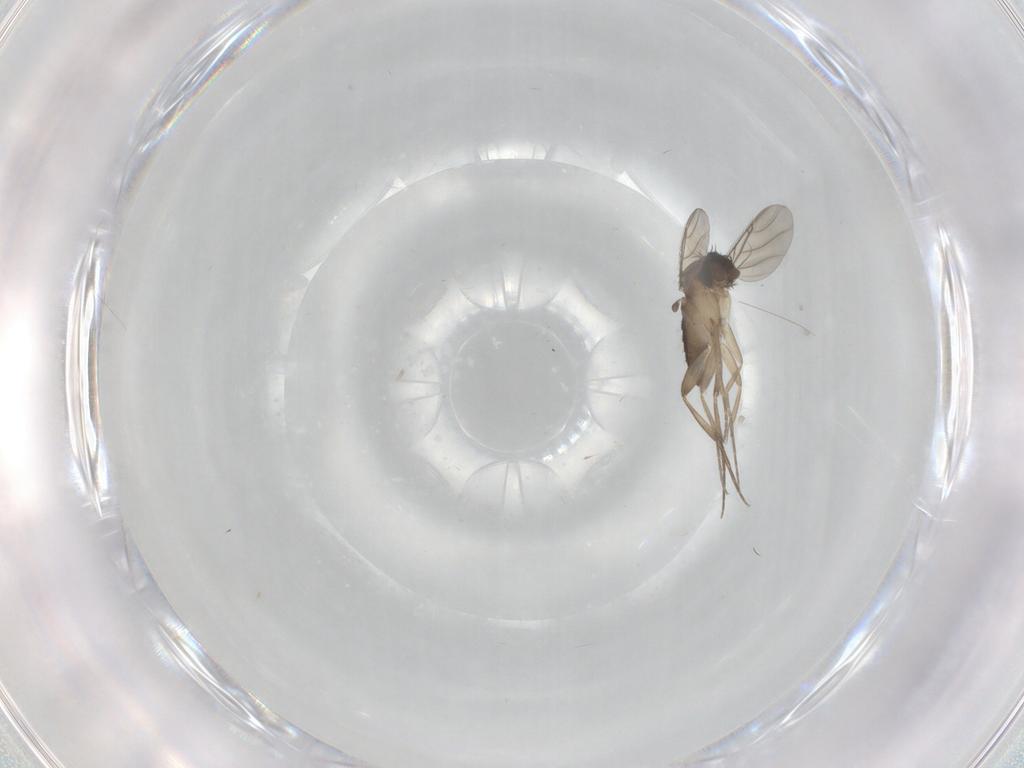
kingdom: Animalia
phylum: Arthropoda
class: Insecta
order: Diptera
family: Phoridae
